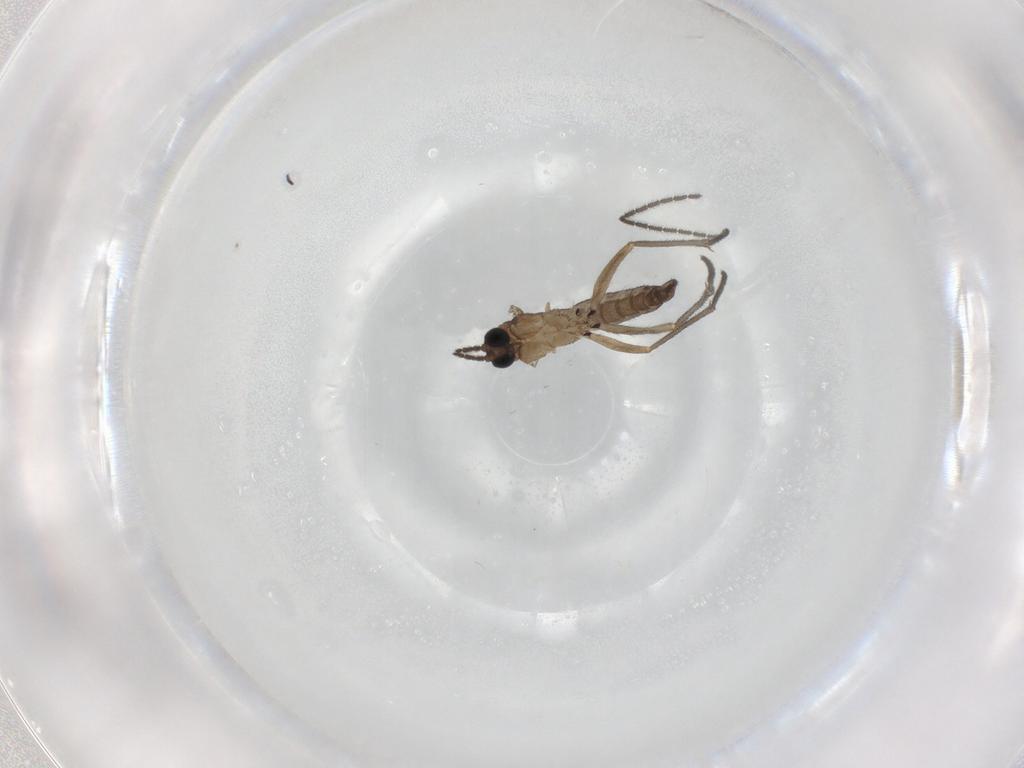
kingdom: Animalia
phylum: Arthropoda
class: Insecta
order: Diptera
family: Sciaridae
